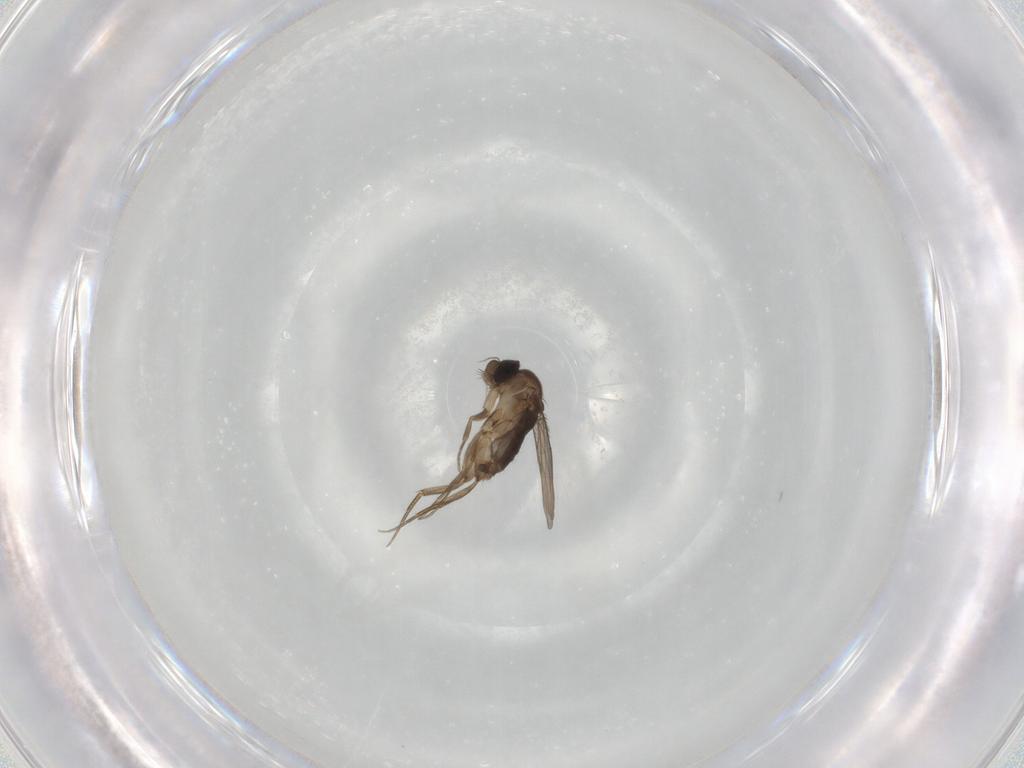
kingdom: Animalia
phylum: Arthropoda
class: Insecta
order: Diptera
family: Phoridae
